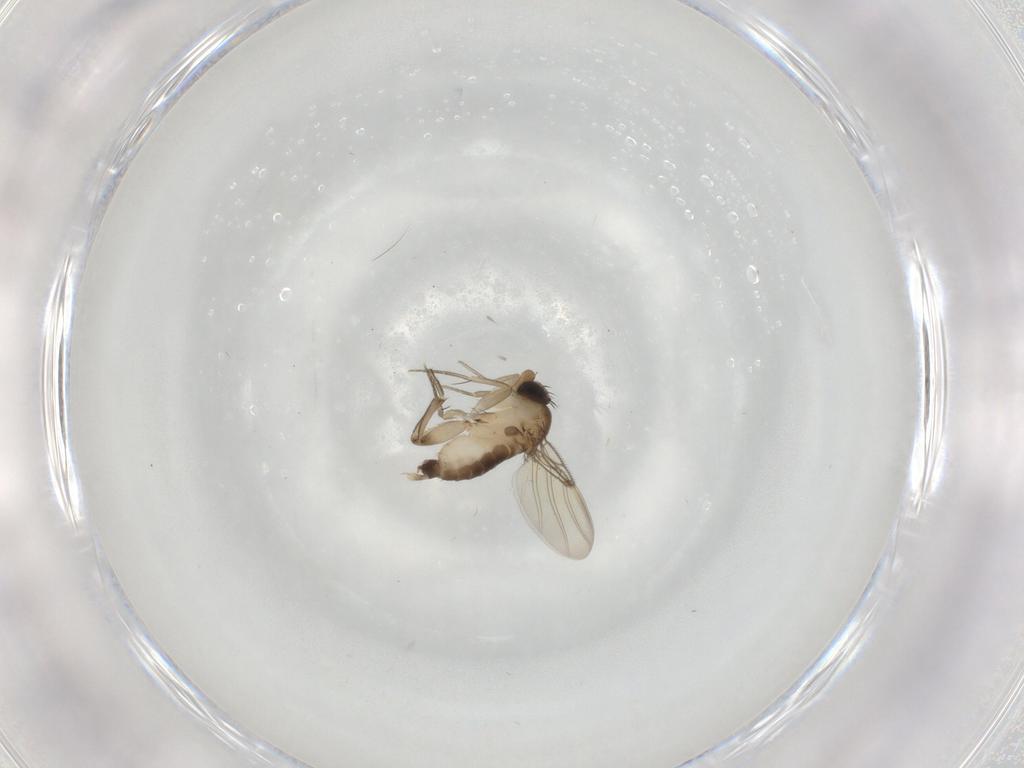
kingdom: Animalia
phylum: Arthropoda
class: Insecta
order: Diptera
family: Phoridae
